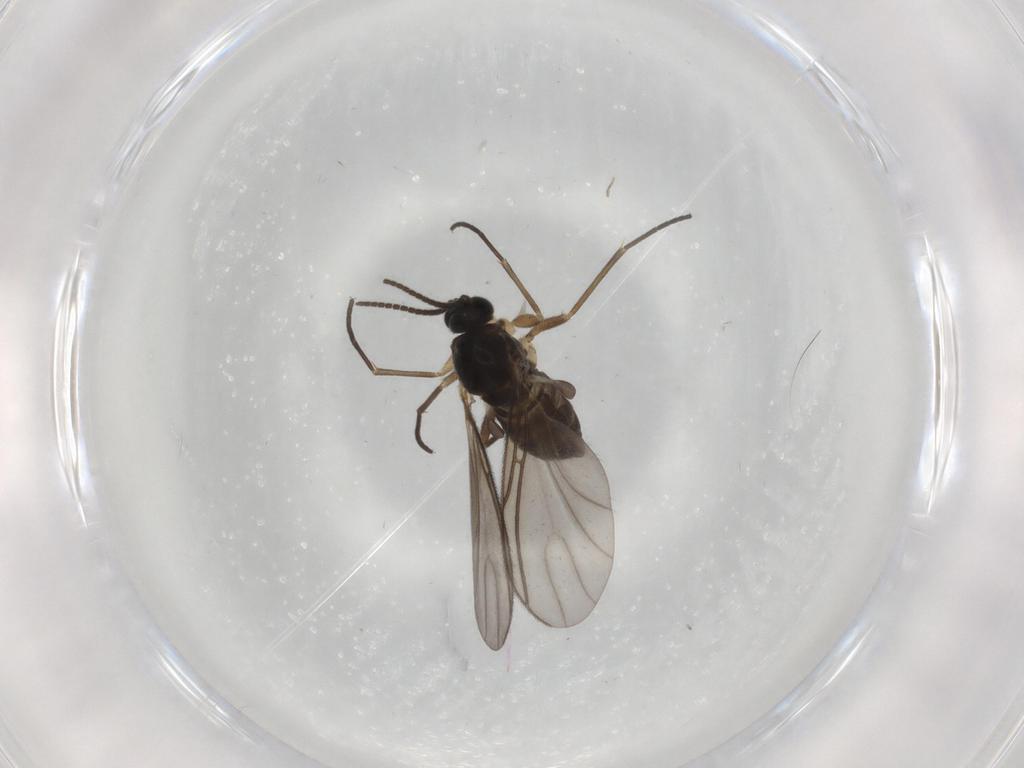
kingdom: Animalia
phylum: Arthropoda
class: Insecta
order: Diptera
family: Sciaridae
